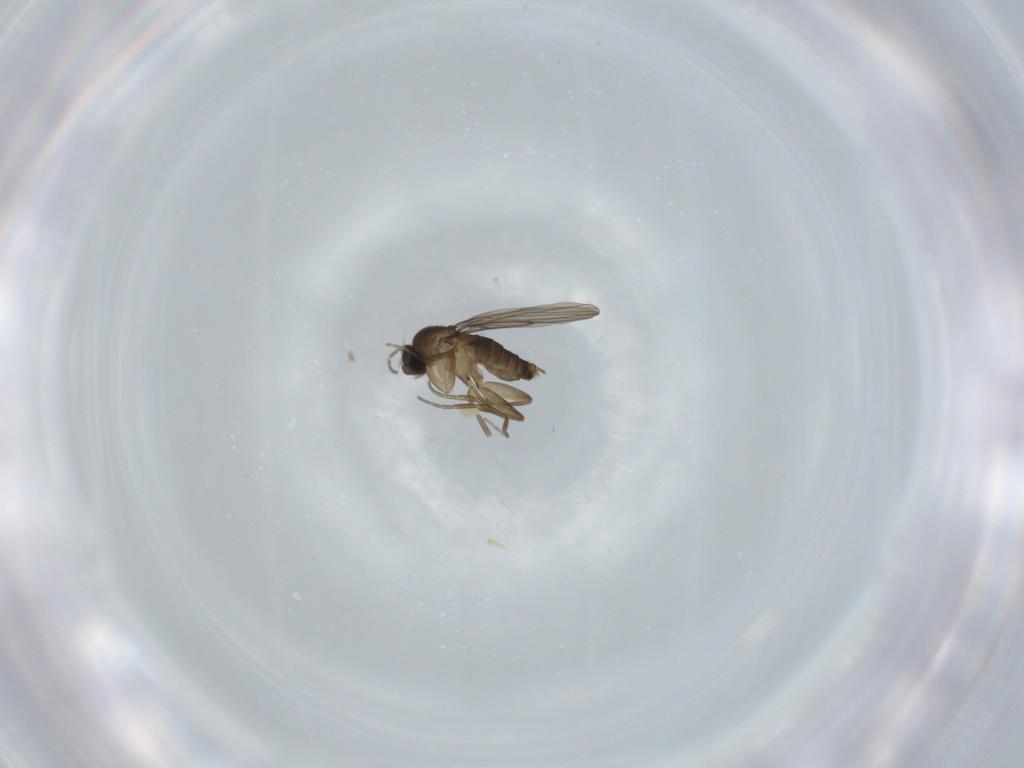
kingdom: Animalia
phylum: Arthropoda
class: Insecta
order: Diptera
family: Phoridae
